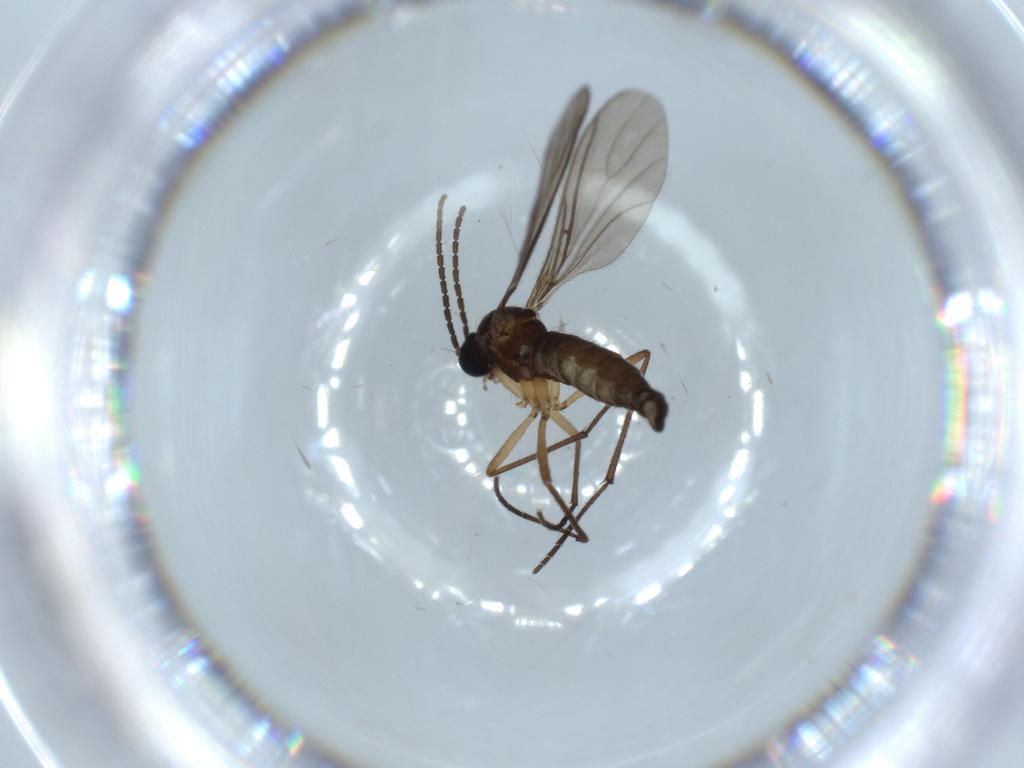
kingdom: Animalia
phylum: Arthropoda
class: Insecta
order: Diptera
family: Sciaridae
